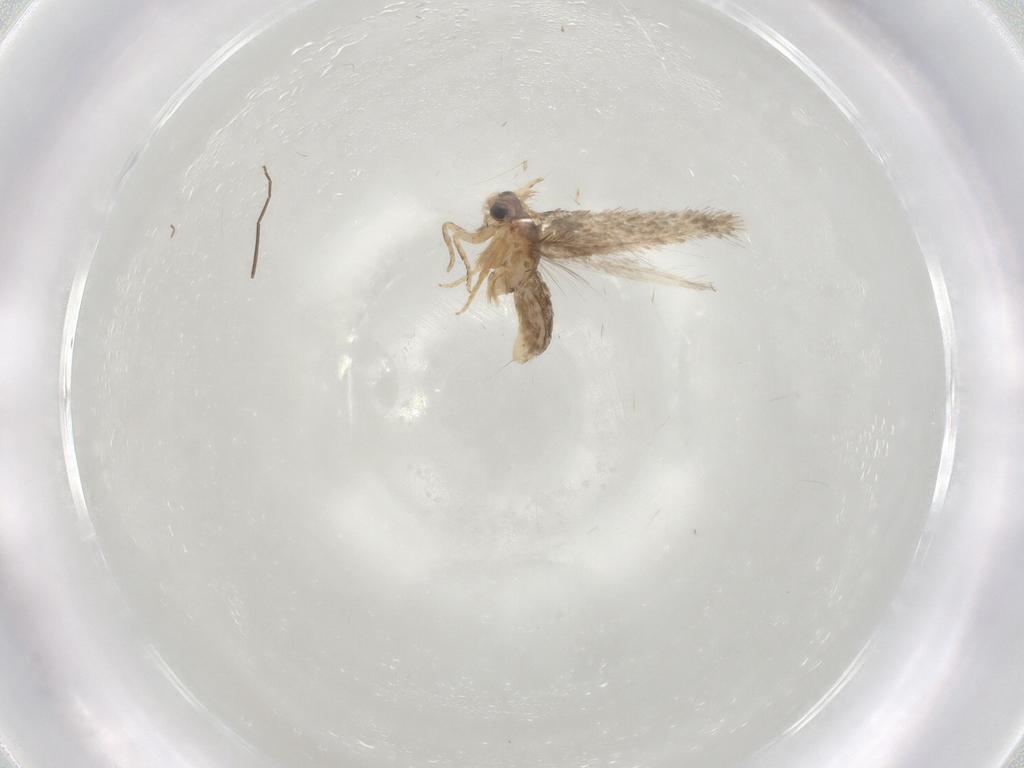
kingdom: Animalia
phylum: Arthropoda
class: Insecta
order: Lepidoptera
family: Nepticulidae
